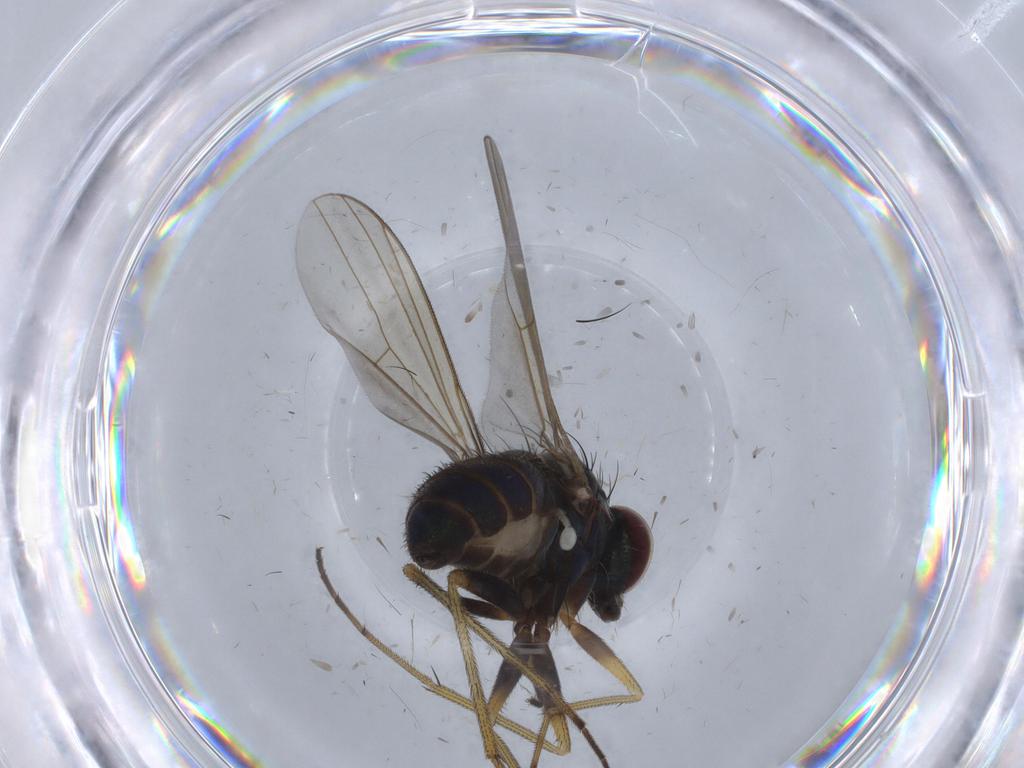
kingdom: Animalia
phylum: Arthropoda
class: Insecta
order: Diptera
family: Dolichopodidae
